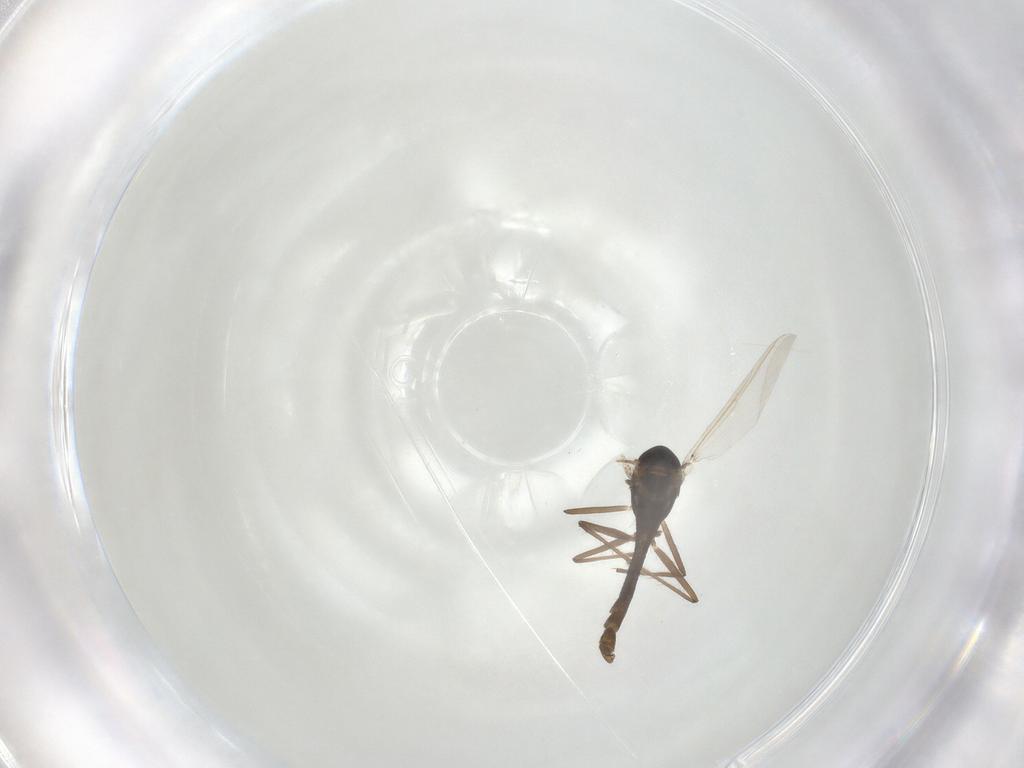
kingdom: Animalia
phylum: Arthropoda
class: Insecta
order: Diptera
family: Chironomidae
